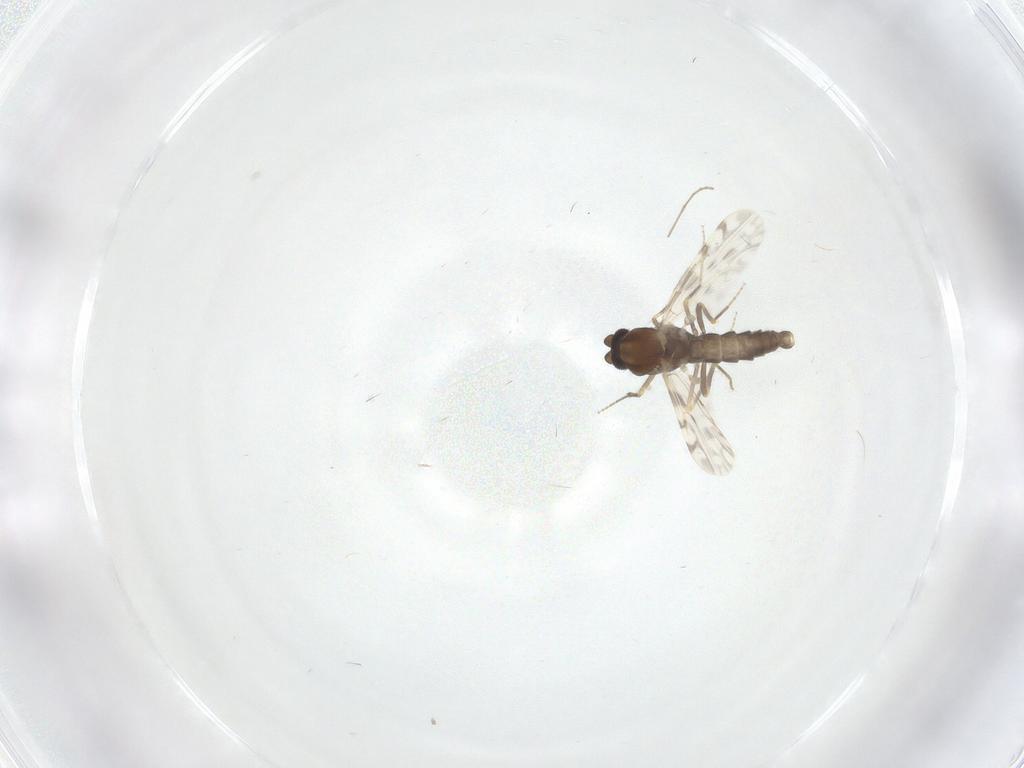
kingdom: Animalia
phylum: Arthropoda
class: Insecta
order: Diptera
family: Ceratopogonidae
